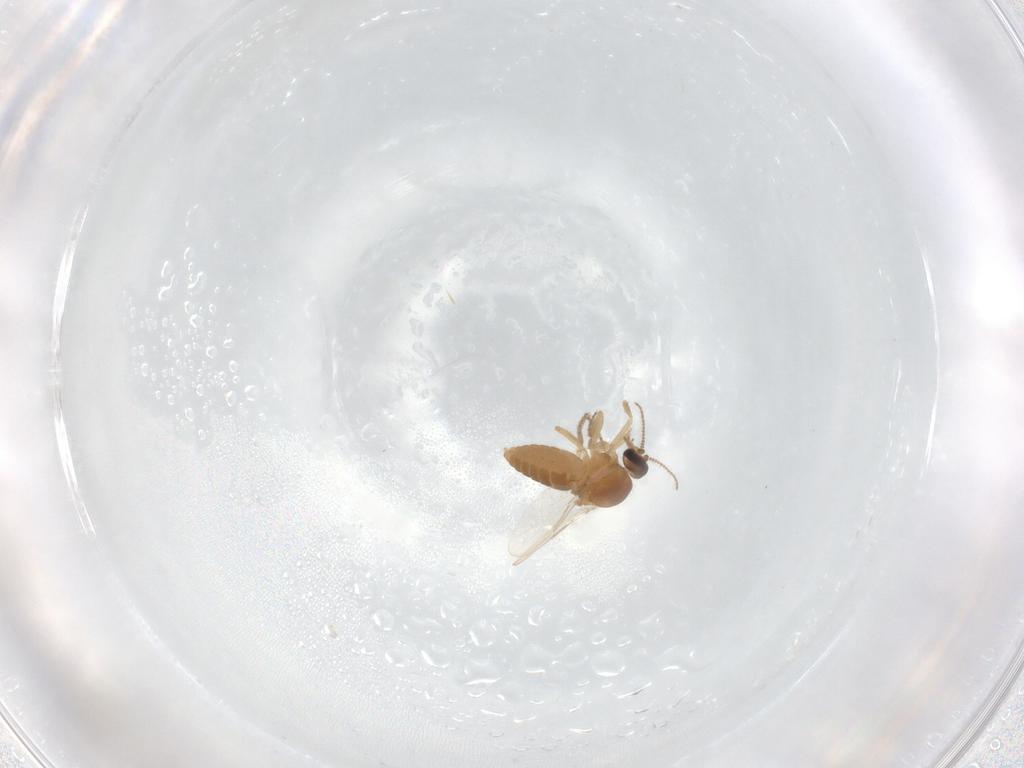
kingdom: Animalia
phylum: Arthropoda
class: Insecta
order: Diptera
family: Ceratopogonidae
